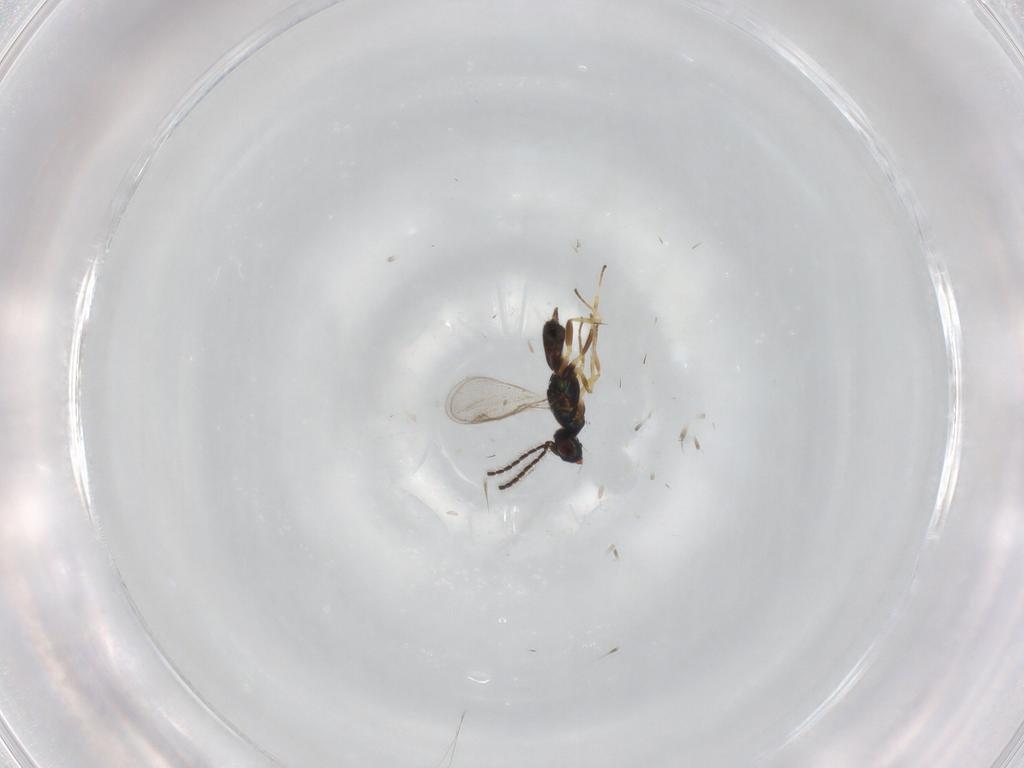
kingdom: Animalia
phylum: Arthropoda
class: Insecta
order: Hymenoptera
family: Eupelmidae
